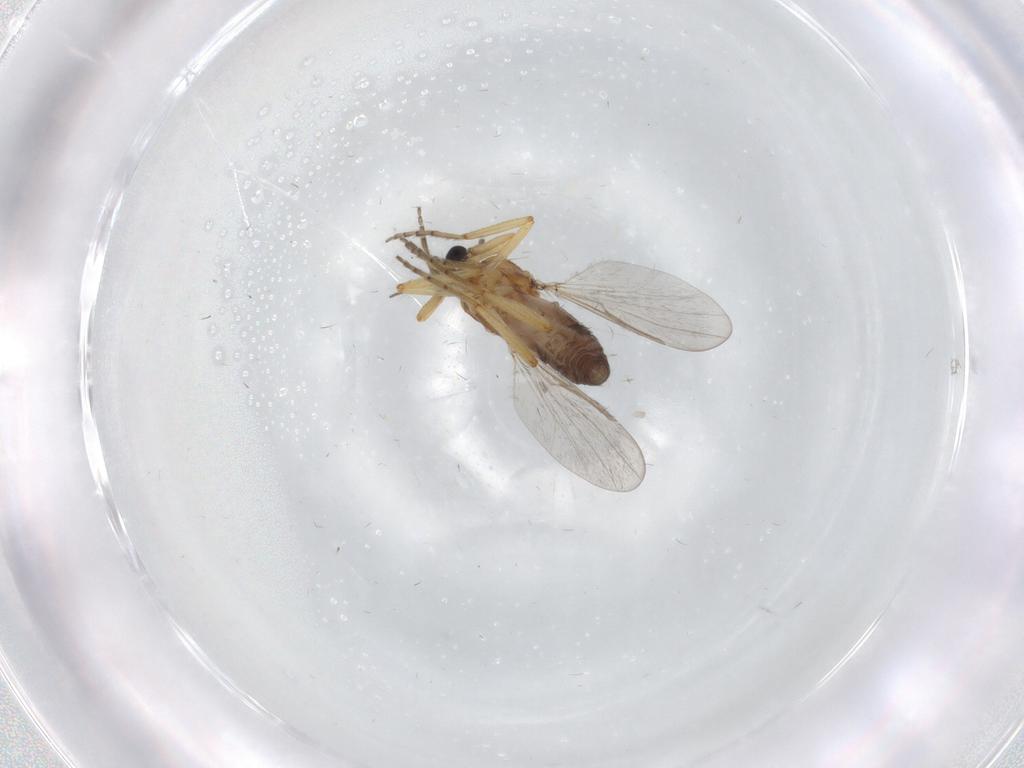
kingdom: Animalia
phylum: Arthropoda
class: Insecta
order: Diptera
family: Ceratopogonidae
